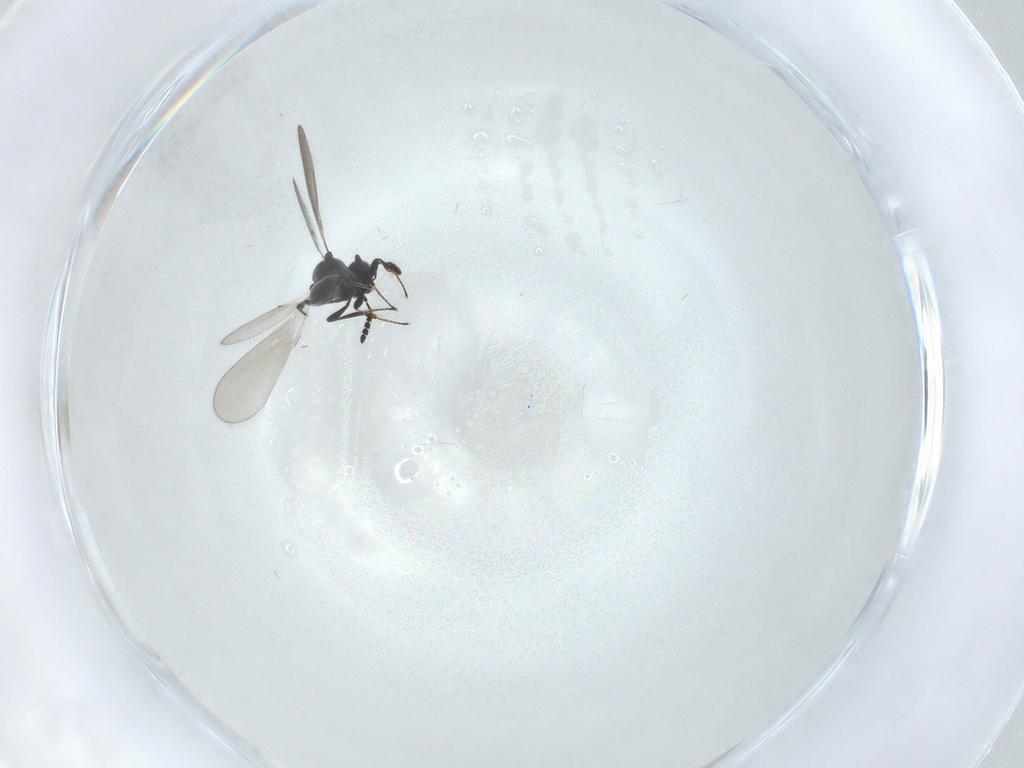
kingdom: Animalia
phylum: Arthropoda
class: Insecta
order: Hymenoptera
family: Platygastridae
